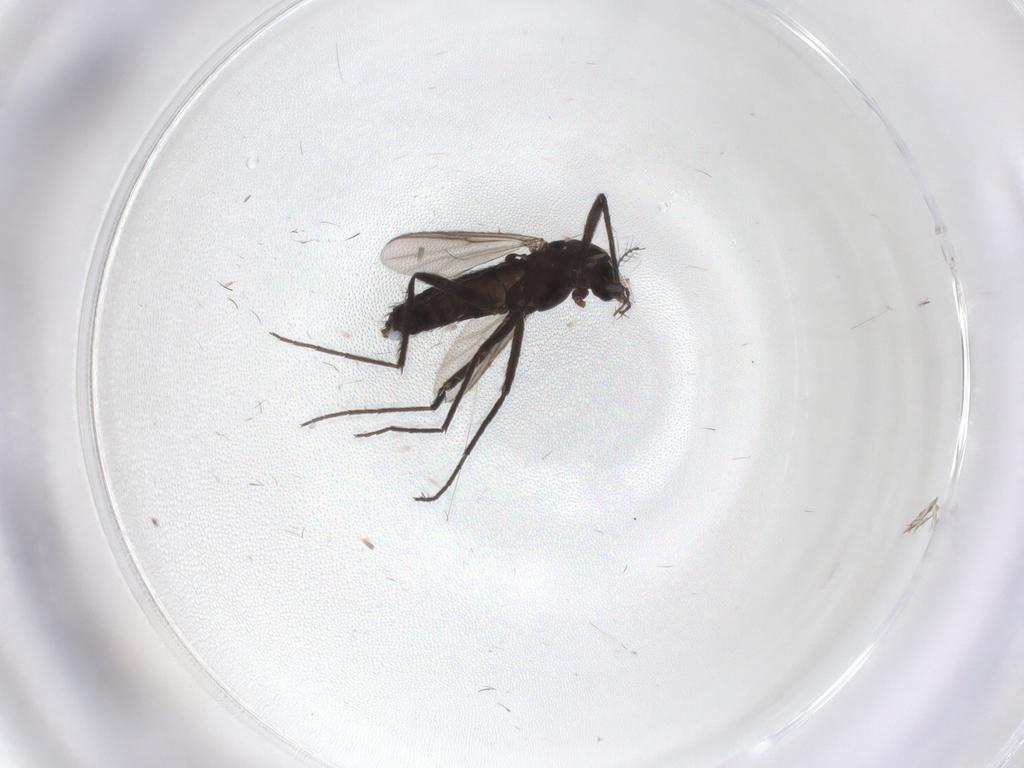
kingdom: Animalia
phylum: Arthropoda
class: Insecta
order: Diptera
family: Chironomidae
